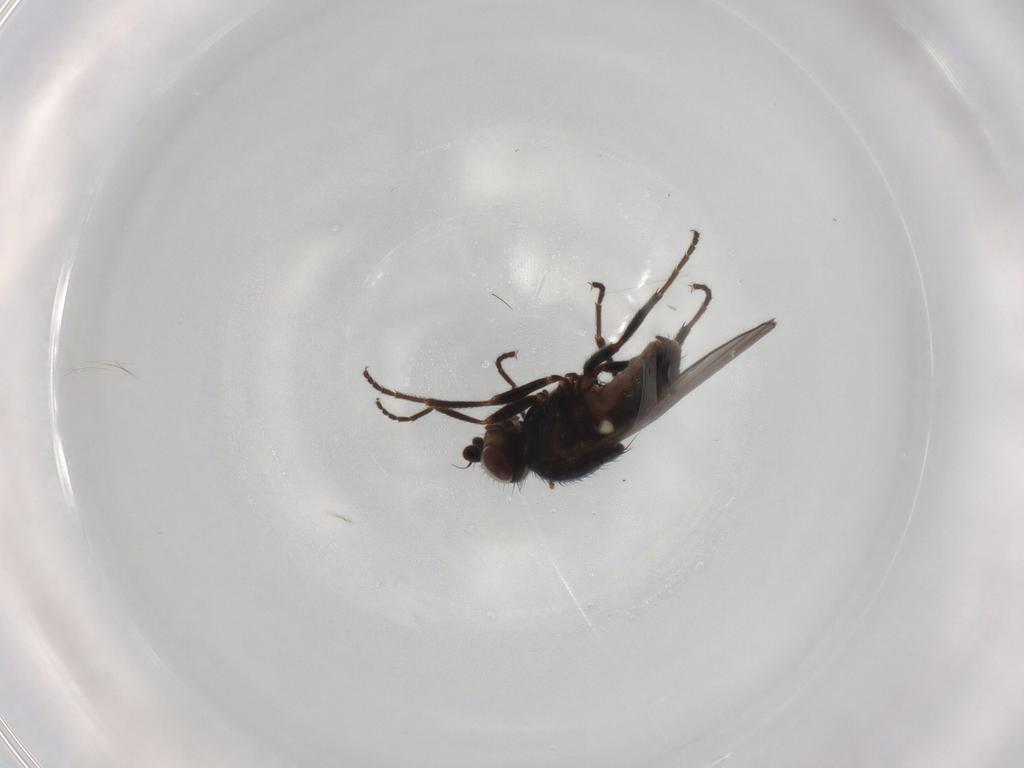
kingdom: Animalia
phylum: Arthropoda
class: Insecta
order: Diptera
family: Chloropidae
